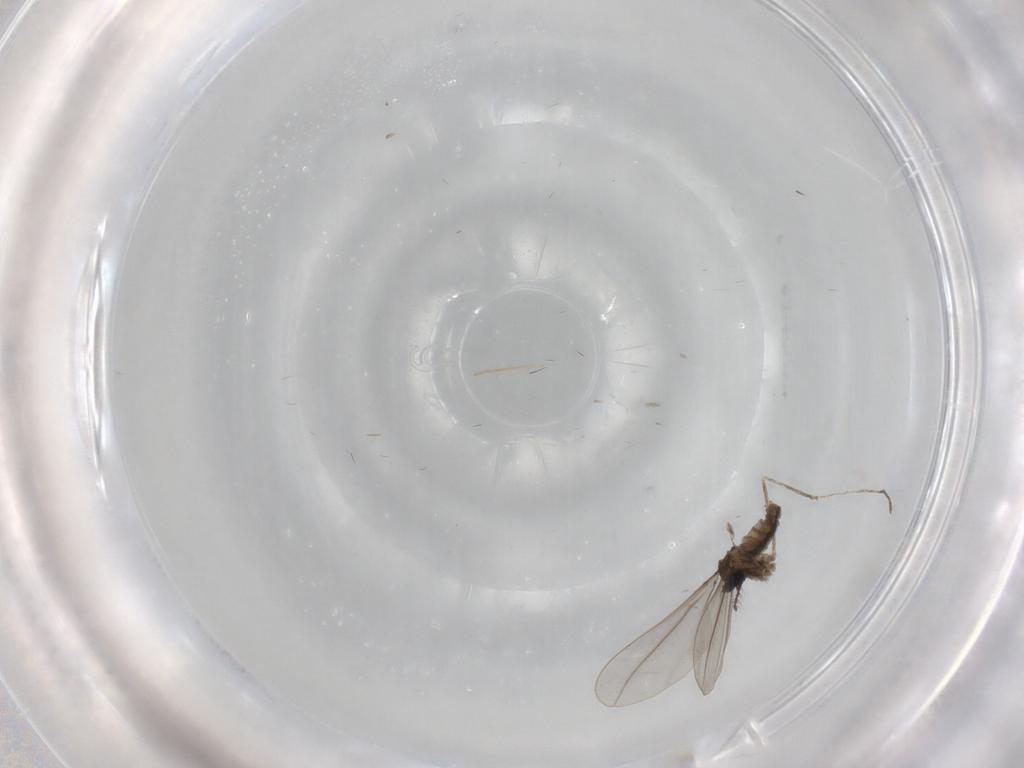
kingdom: Animalia
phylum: Arthropoda
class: Insecta
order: Diptera
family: Cecidomyiidae
